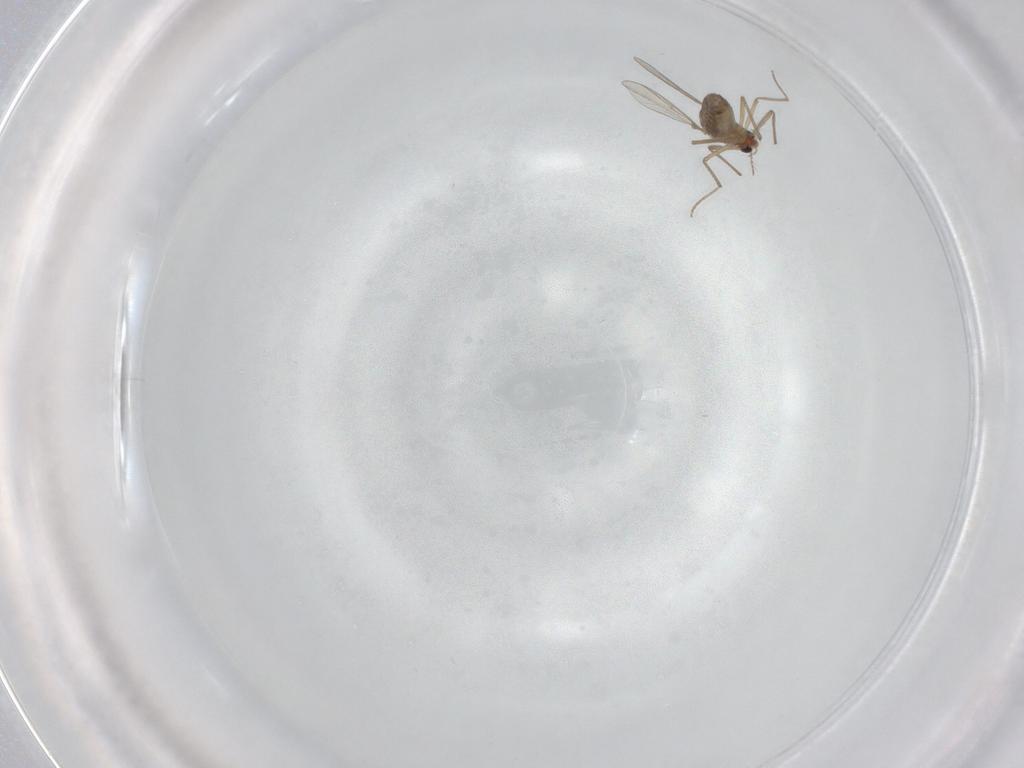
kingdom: Animalia
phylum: Arthropoda
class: Insecta
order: Diptera
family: Chironomidae
